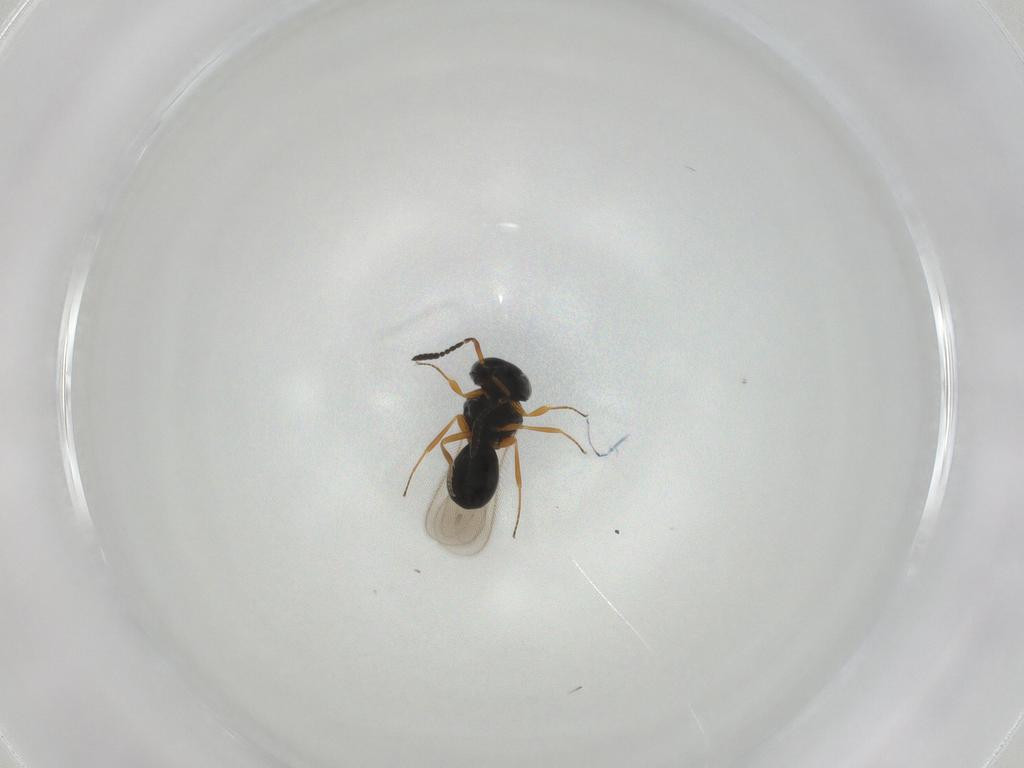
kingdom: Animalia
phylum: Arthropoda
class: Insecta
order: Hymenoptera
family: Scelionidae
